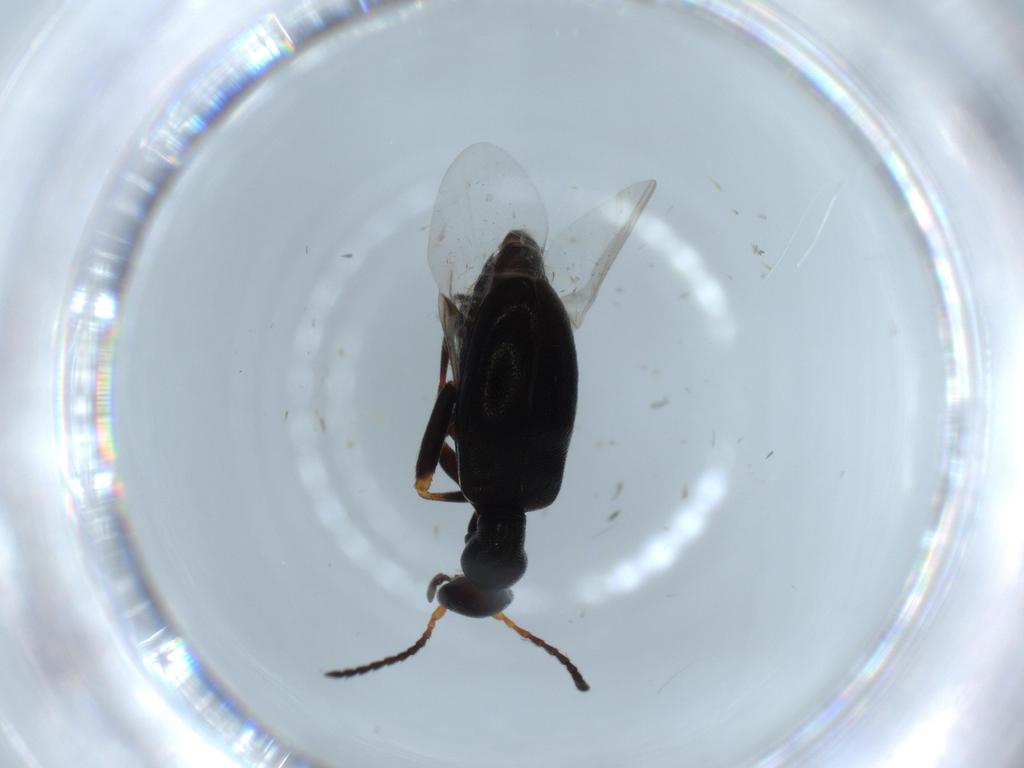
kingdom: Animalia
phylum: Arthropoda
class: Insecta
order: Coleoptera
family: Anthicidae
